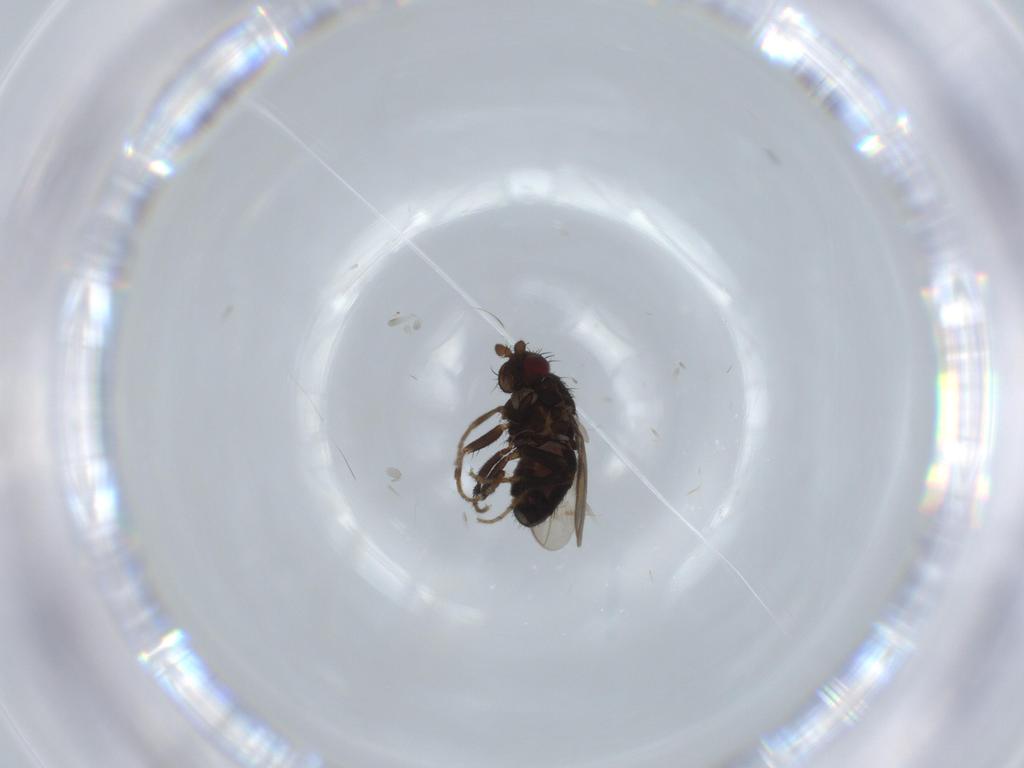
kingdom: Animalia
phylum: Arthropoda
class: Insecta
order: Diptera
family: Sphaeroceridae
